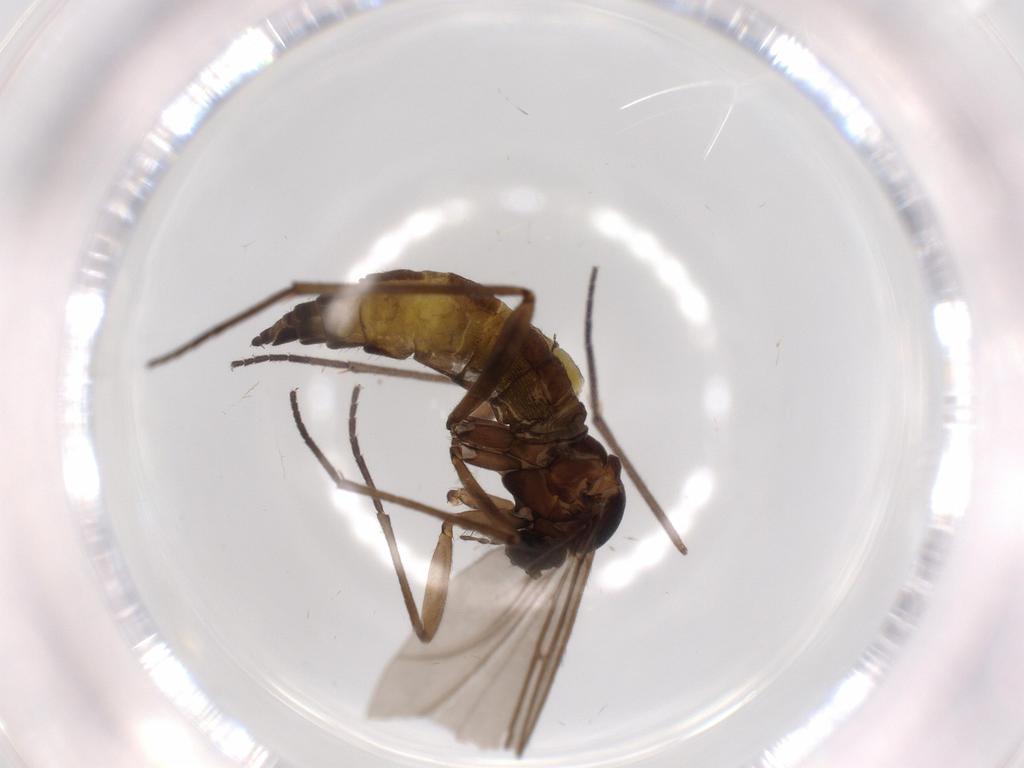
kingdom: Animalia
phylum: Arthropoda
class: Insecta
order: Diptera
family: Sciaridae
